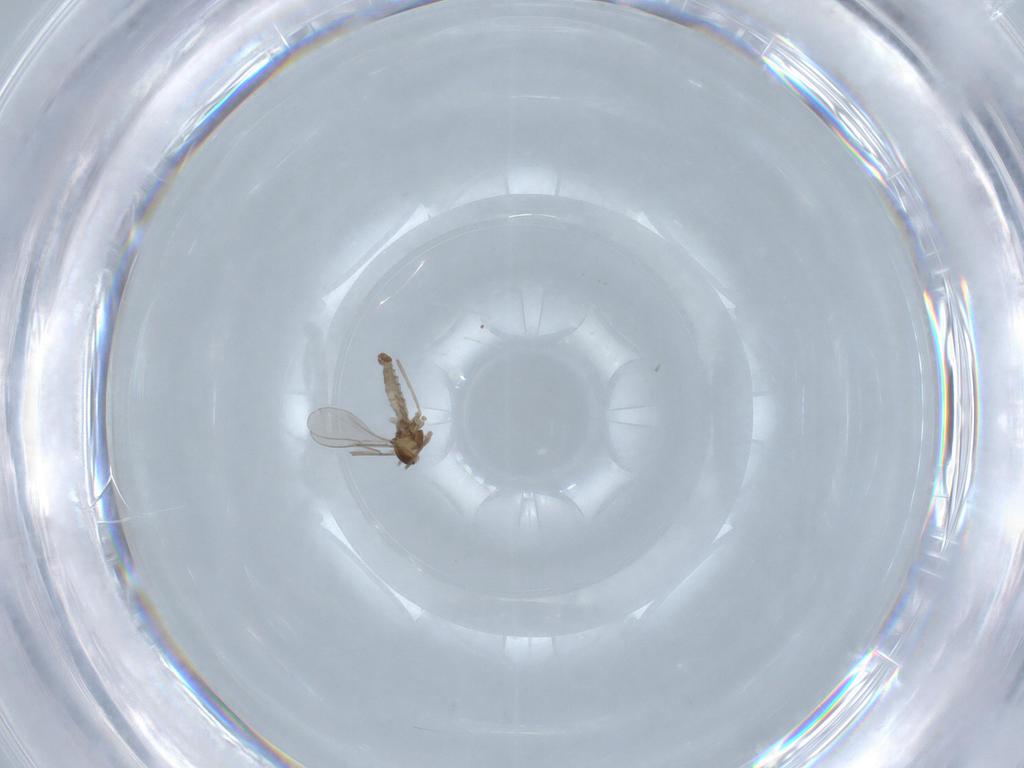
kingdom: Animalia
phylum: Arthropoda
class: Insecta
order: Diptera
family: Cecidomyiidae
